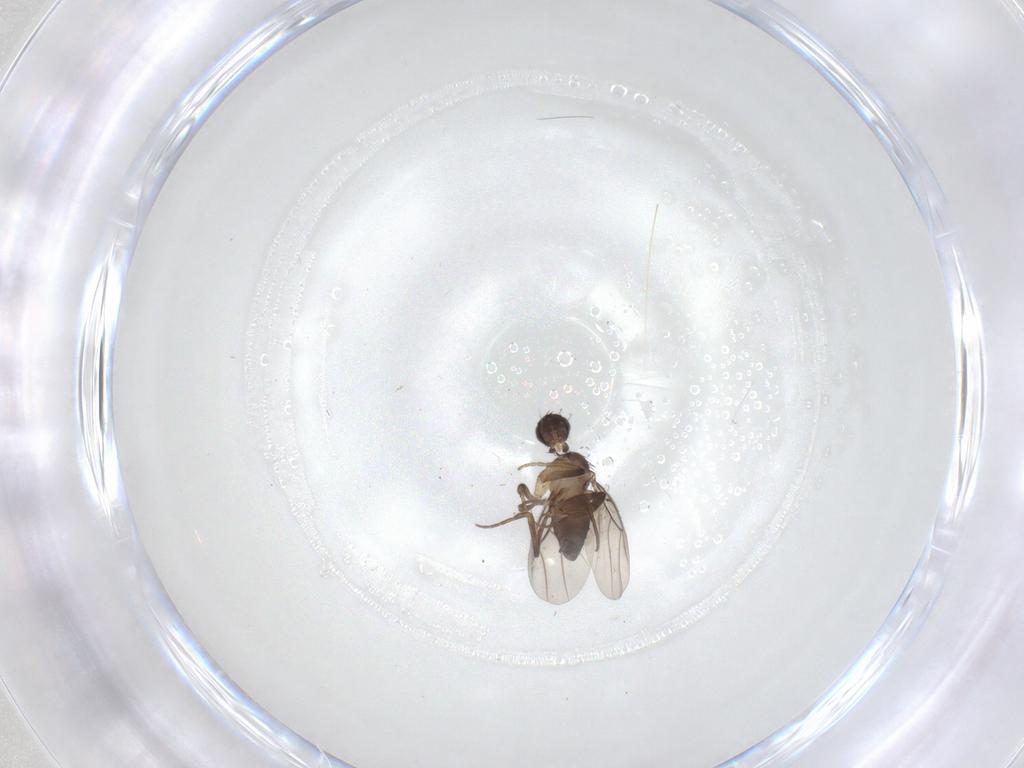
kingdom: Animalia
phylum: Arthropoda
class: Insecta
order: Diptera
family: Phoridae
